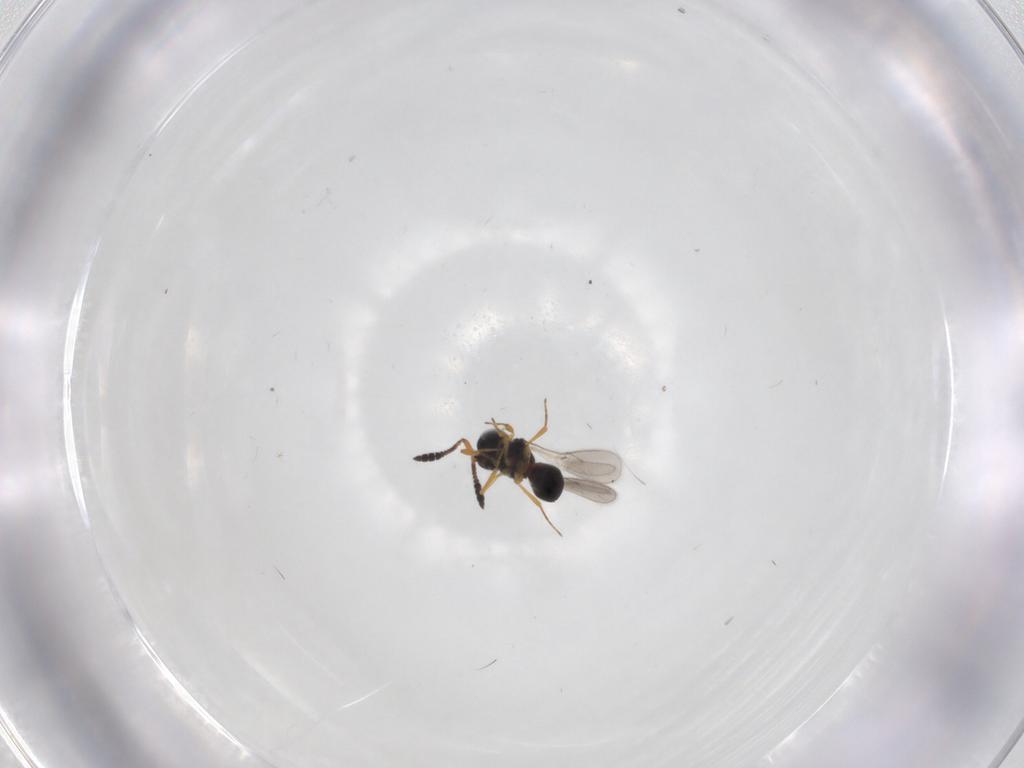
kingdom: Animalia
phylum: Arthropoda
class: Insecta
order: Hymenoptera
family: Scelionidae
